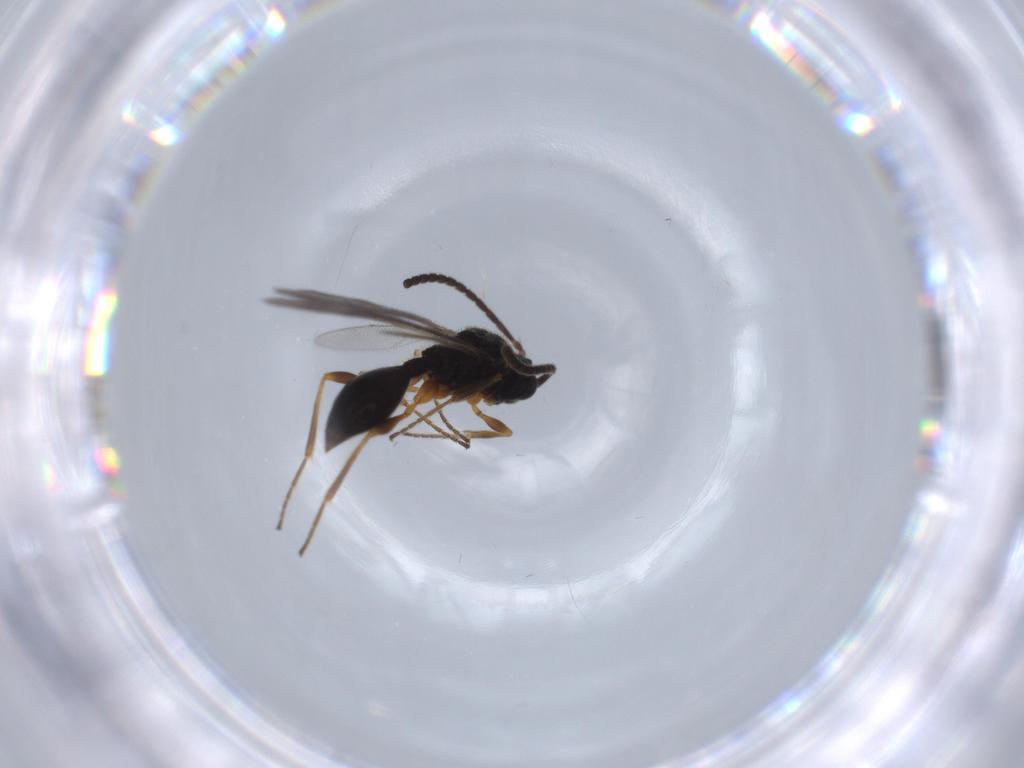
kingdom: Animalia
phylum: Arthropoda
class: Insecta
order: Hymenoptera
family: Diapriidae
